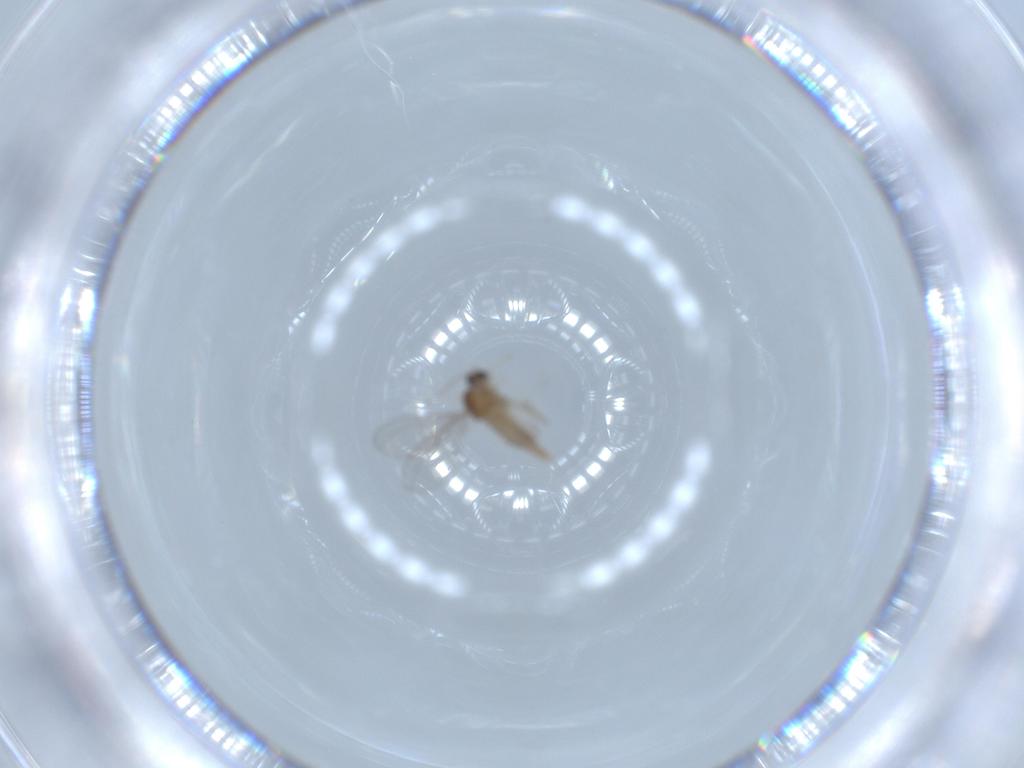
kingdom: Animalia
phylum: Arthropoda
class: Insecta
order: Diptera
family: Cecidomyiidae
